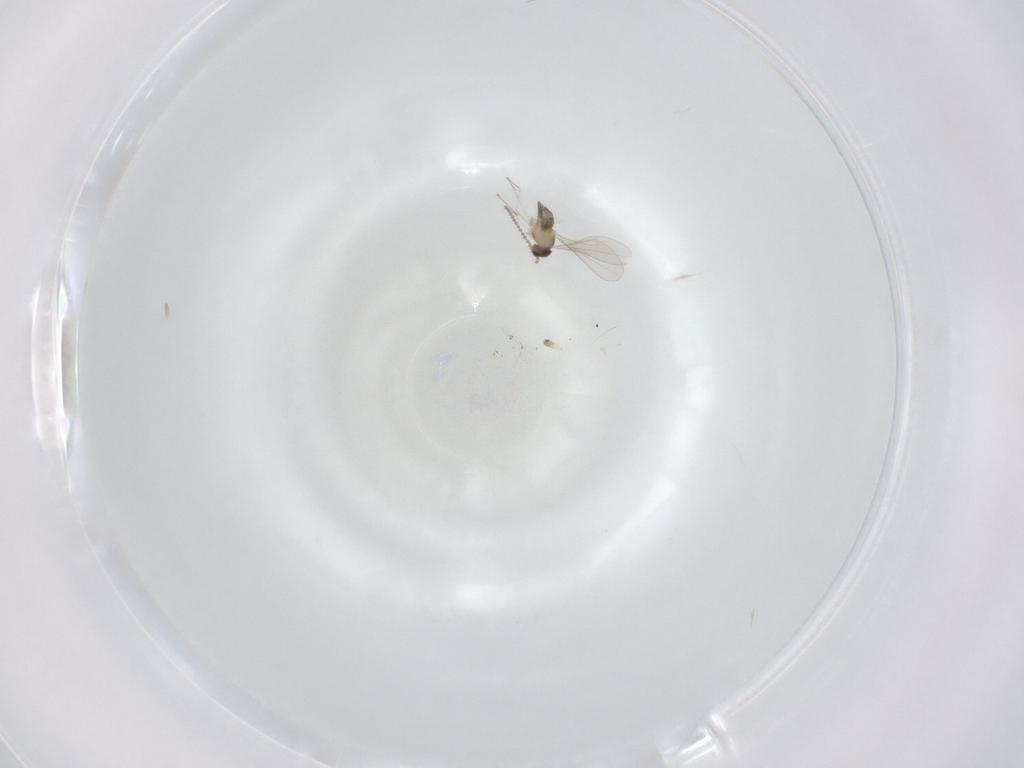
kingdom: Animalia
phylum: Arthropoda
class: Insecta
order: Diptera
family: Cecidomyiidae
